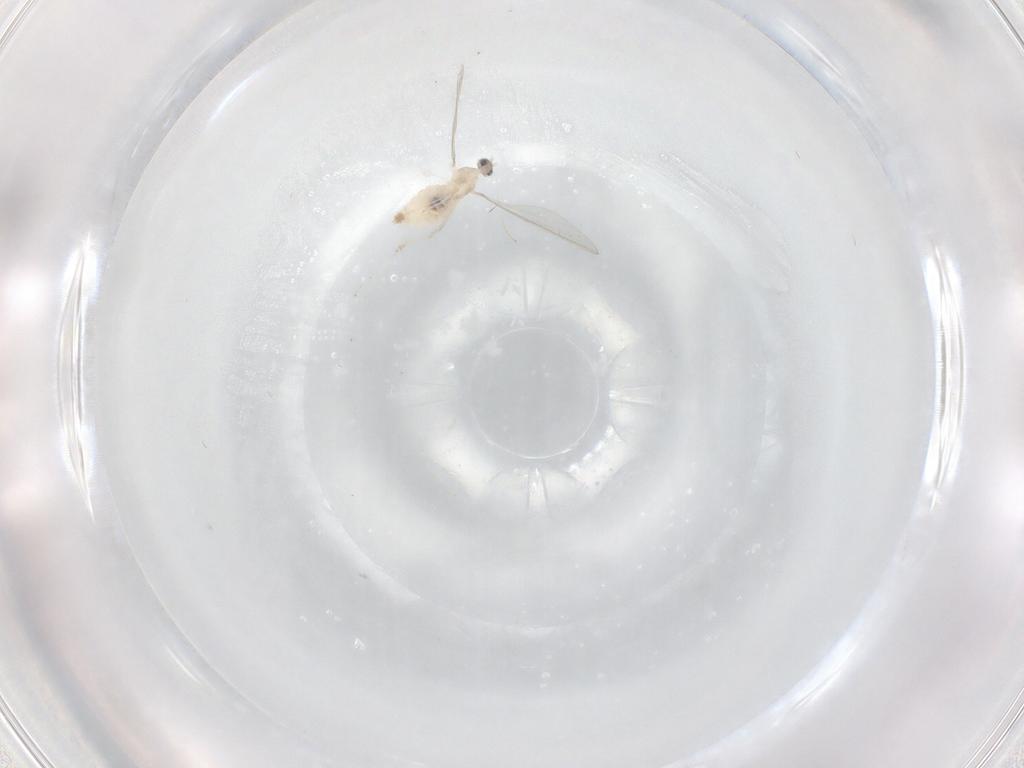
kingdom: Animalia
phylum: Arthropoda
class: Insecta
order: Diptera
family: Cecidomyiidae
